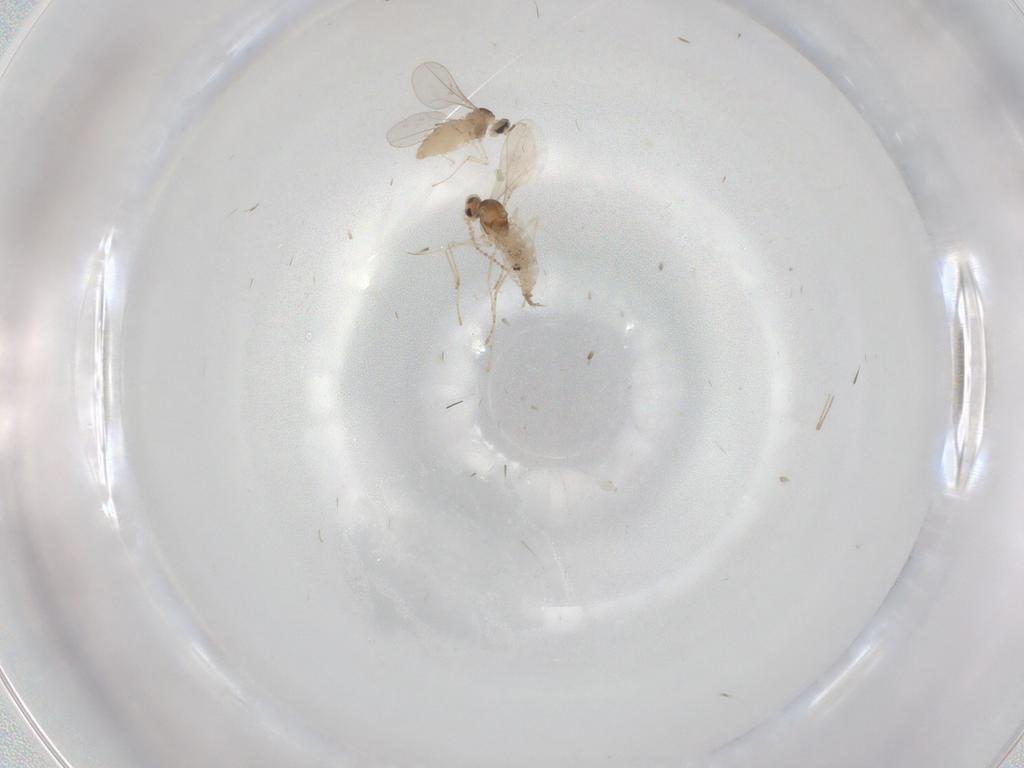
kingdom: Animalia
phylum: Arthropoda
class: Insecta
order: Diptera
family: Cecidomyiidae
